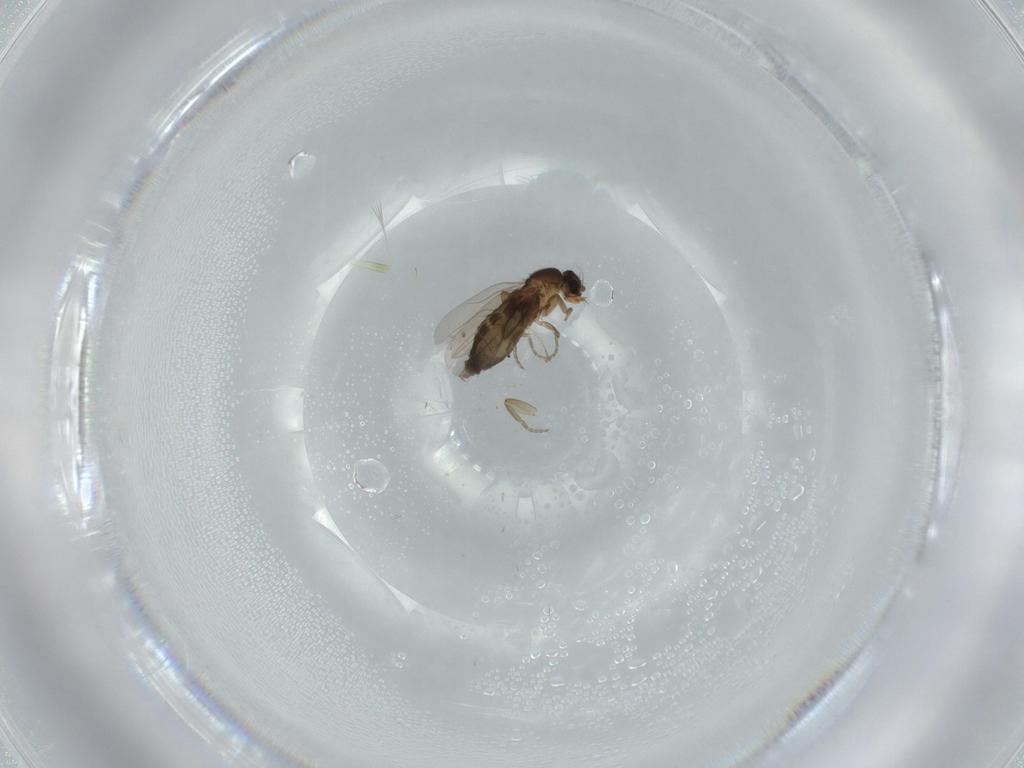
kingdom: Animalia
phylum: Arthropoda
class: Insecta
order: Diptera
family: Phoridae
